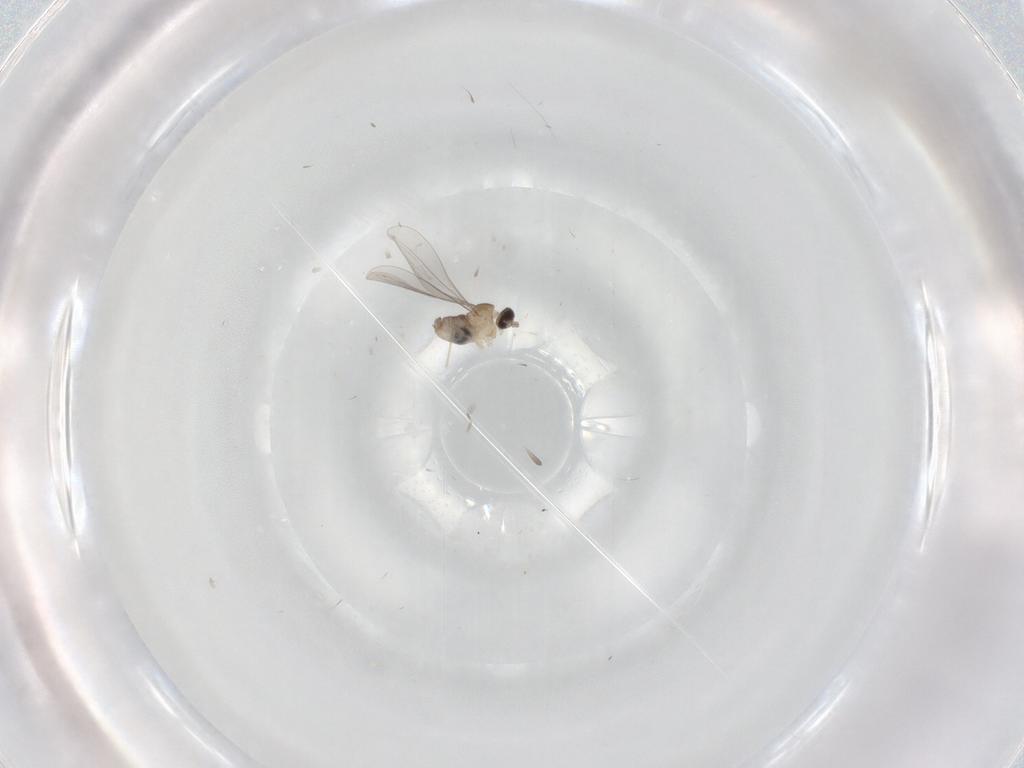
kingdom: Animalia
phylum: Arthropoda
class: Insecta
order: Diptera
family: Cecidomyiidae
